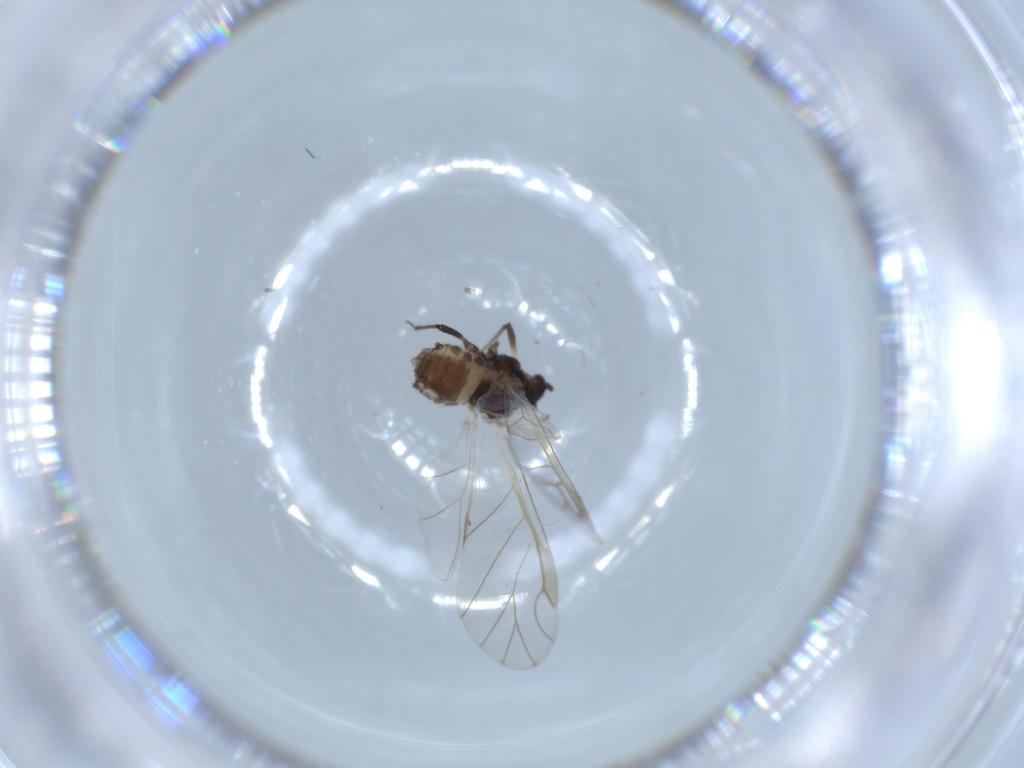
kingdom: Animalia
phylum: Arthropoda
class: Insecta
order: Hemiptera
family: Aphididae
